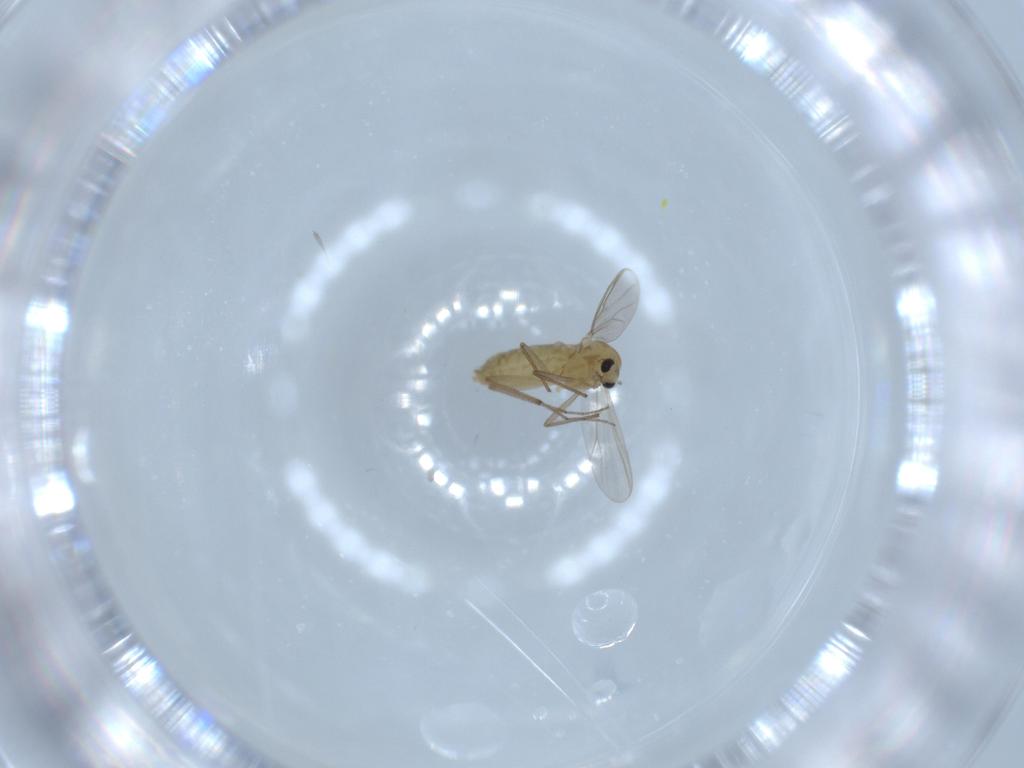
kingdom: Animalia
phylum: Arthropoda
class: Insecta
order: Diptera
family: Chironomidae
